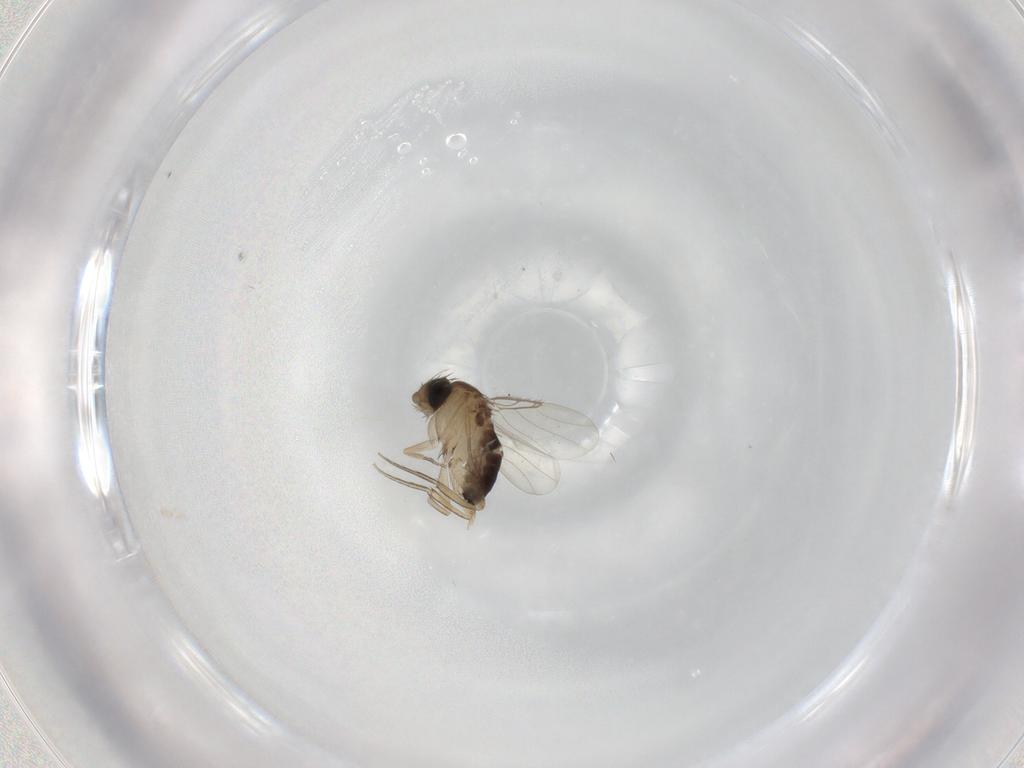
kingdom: Animalia
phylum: Arthropoda
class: Insecta
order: Diptera
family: Phoridae
